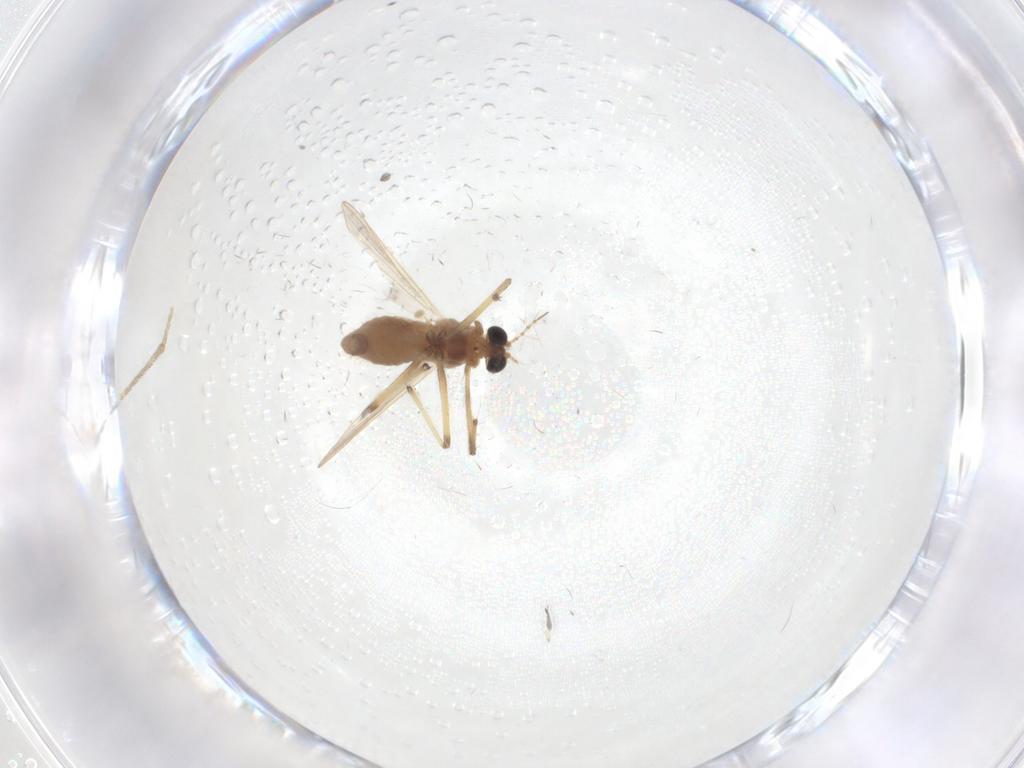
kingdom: Animalia
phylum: Arthropoda
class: Insecta
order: Diptera
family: Chironomidae
